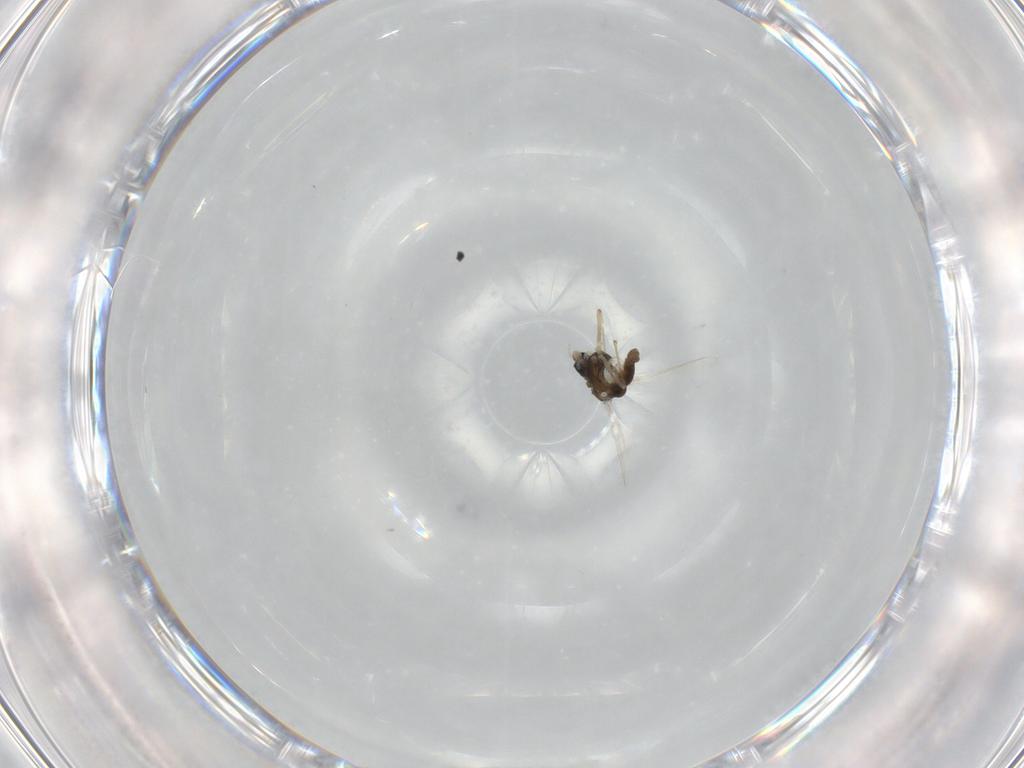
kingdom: Animalia
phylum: Arthropoda
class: Insecta
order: Diptera
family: Chironomidae
